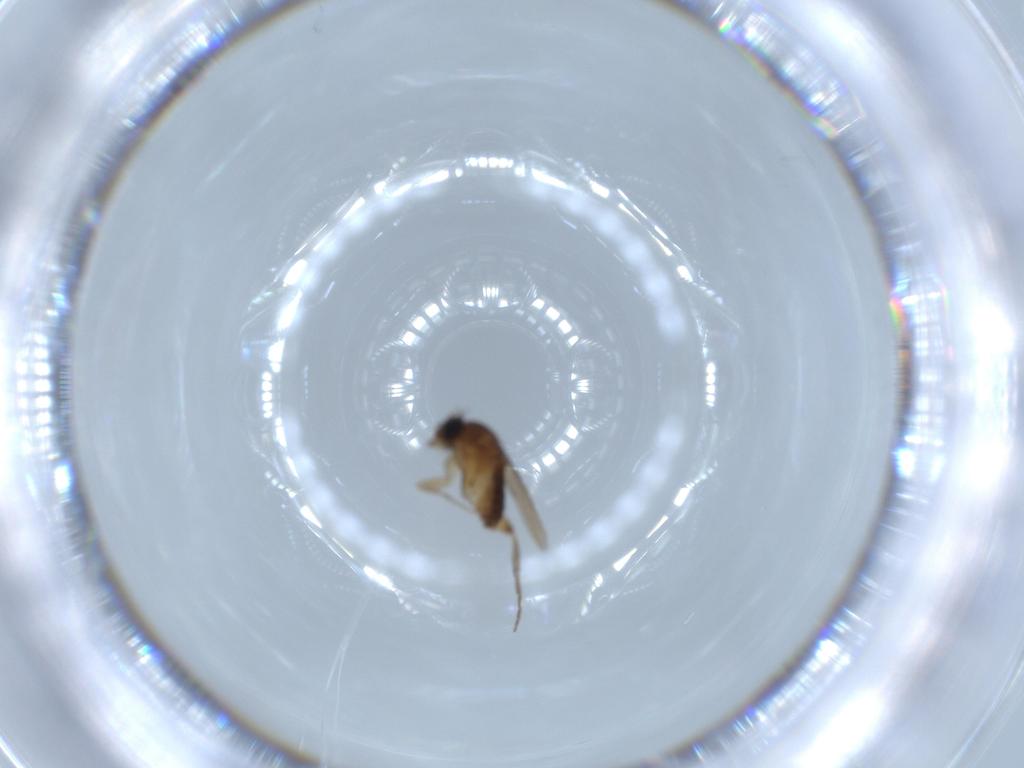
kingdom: Animalia
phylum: Arthropoda
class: Insecta
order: Diptera
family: Phoridae
